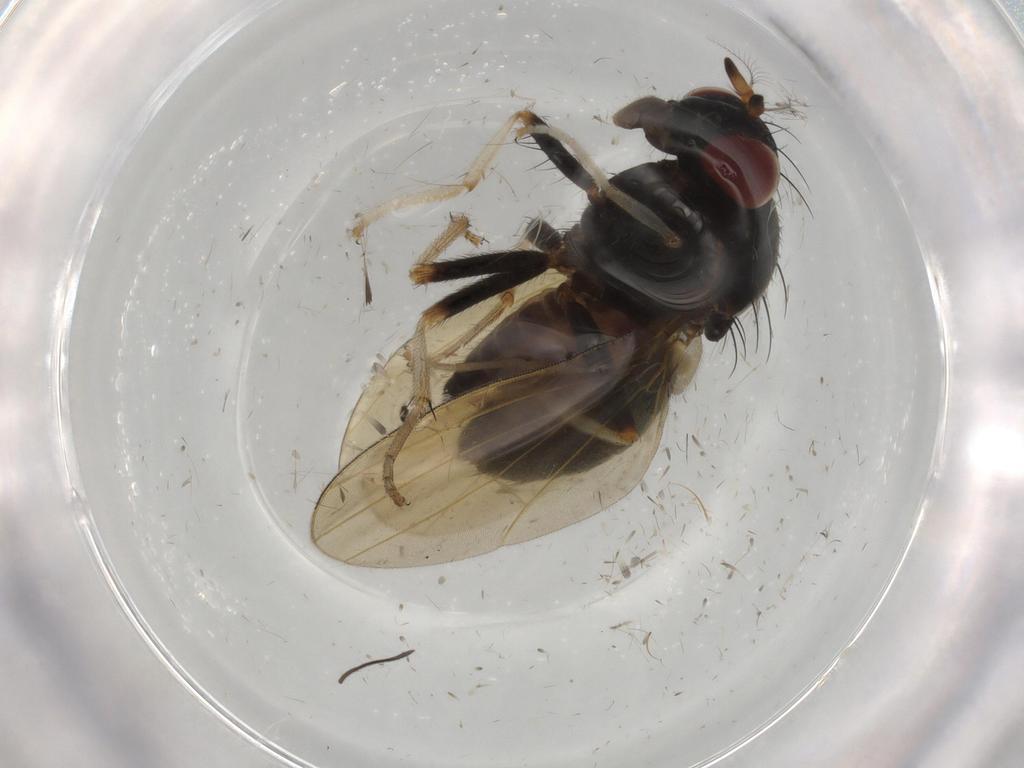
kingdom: Animalia
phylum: Arthropoda
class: Insecta
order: Diptera
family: Lauxaniidae
